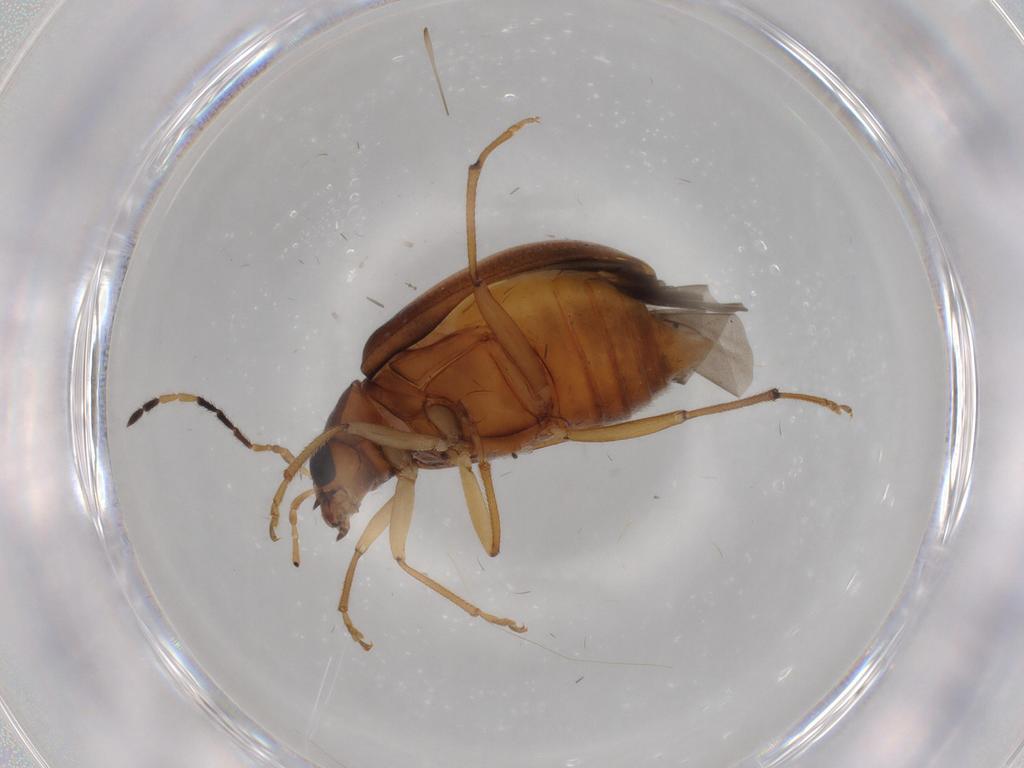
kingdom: Animalia
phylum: Arthropoda
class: Insecta
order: Coleoptera
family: Chrysomelidae
